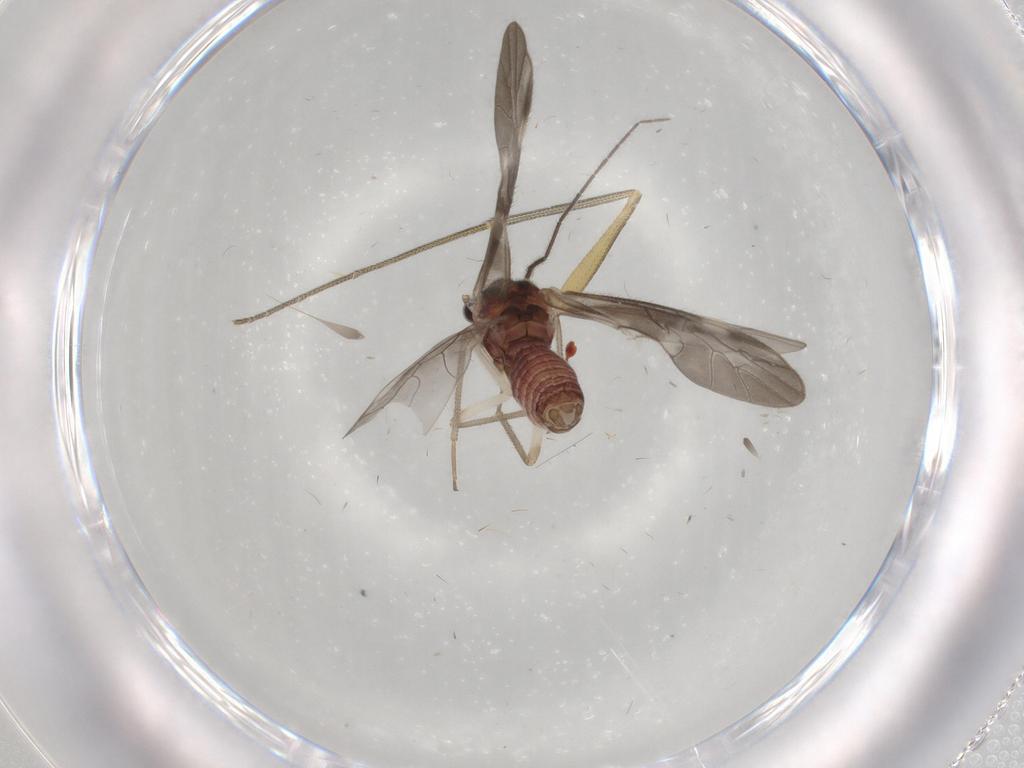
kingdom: Animalia
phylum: Arthropoda
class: Insecta
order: Psocodea
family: Caeciliusidae
